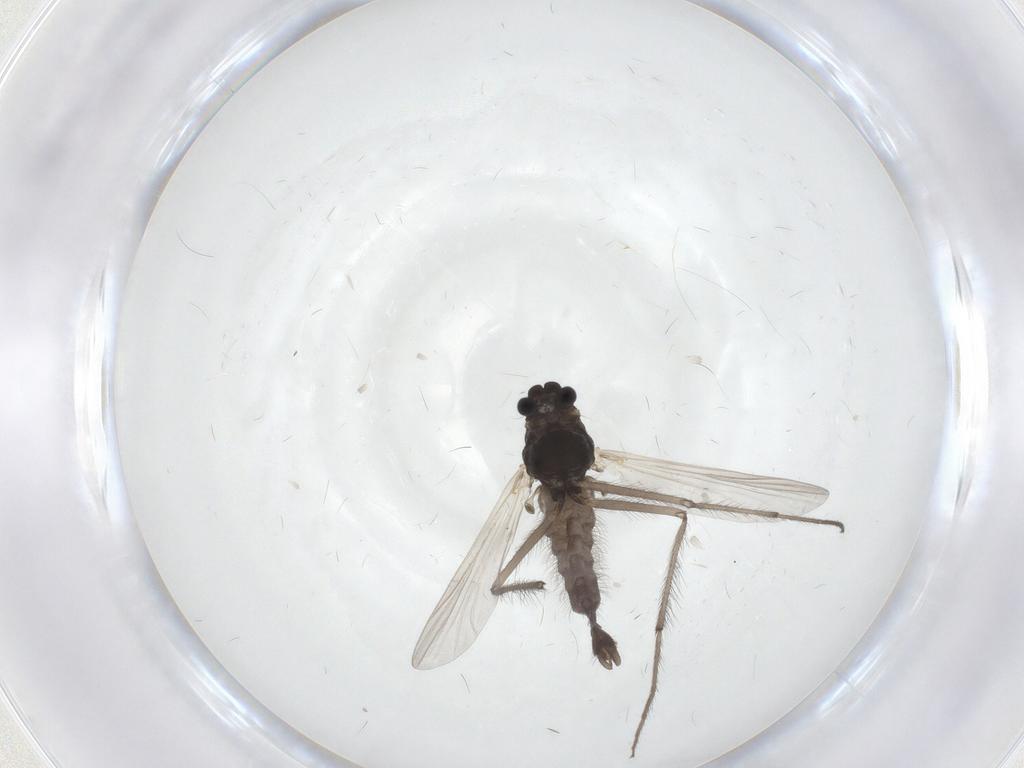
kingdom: Animalia
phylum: Arthropoda
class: Insecta
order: Diptera
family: Chironomidae
